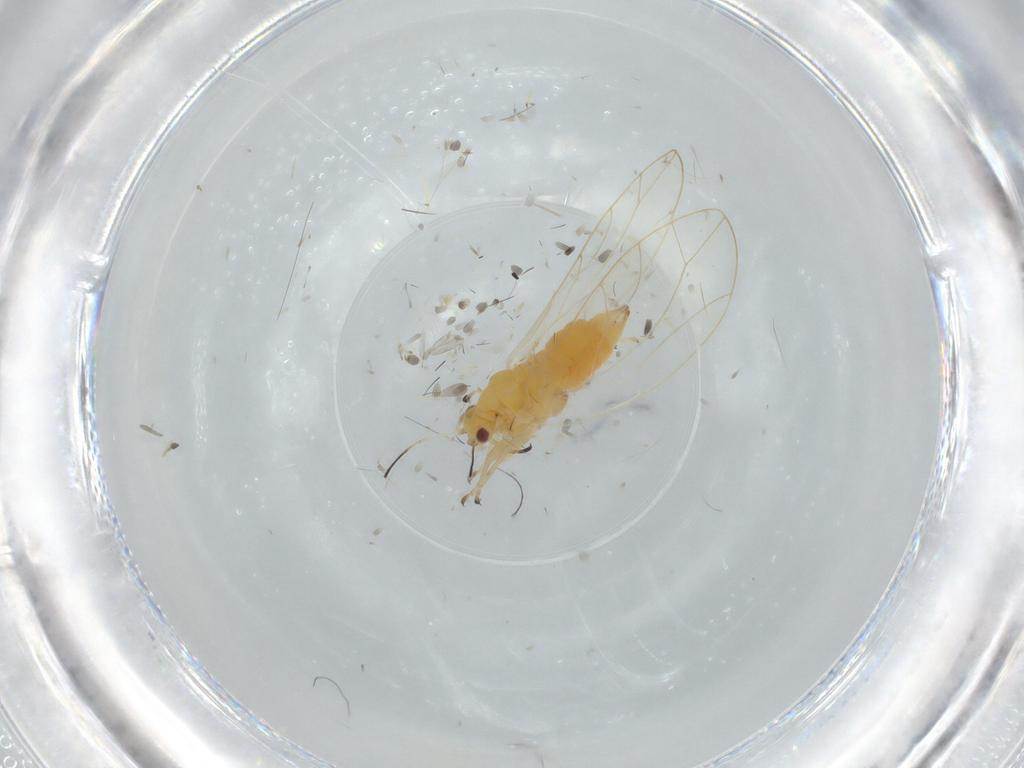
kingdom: Animalia
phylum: Arthropoda
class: Insecta
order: Hemiptera
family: Triozidae
